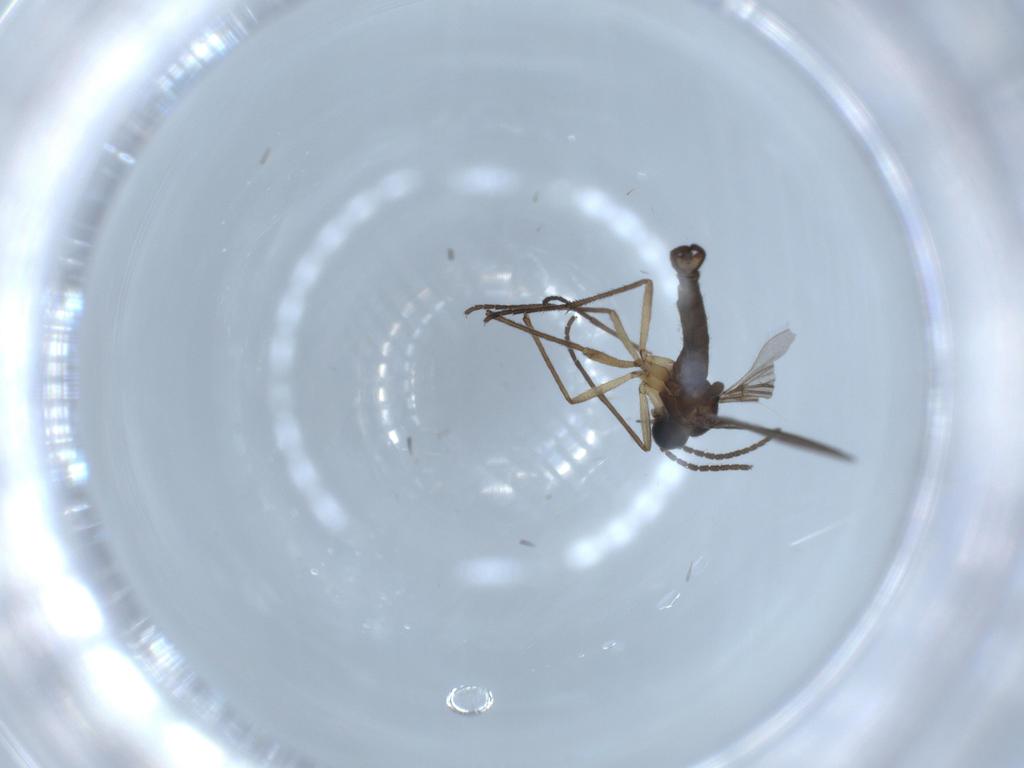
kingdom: Animalia
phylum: Arthropoda
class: Insecta
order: Diptera
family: Sciaridae
